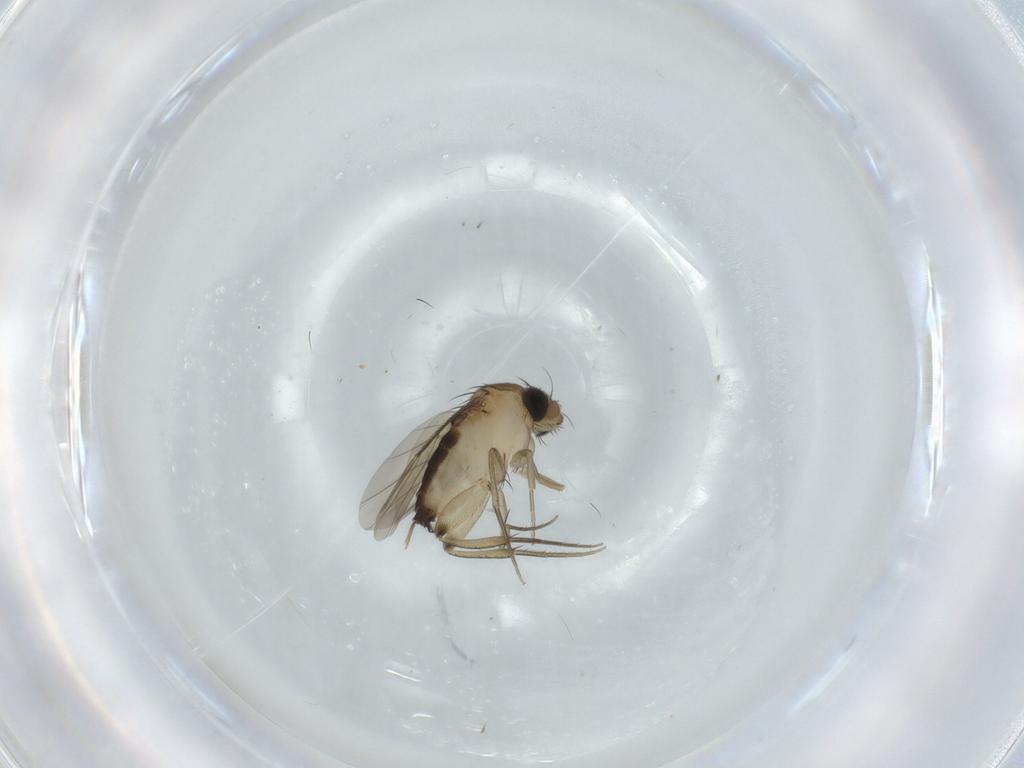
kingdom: Animalia
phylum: Arthropoda
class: Insecta
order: Diptera
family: Phoridae
